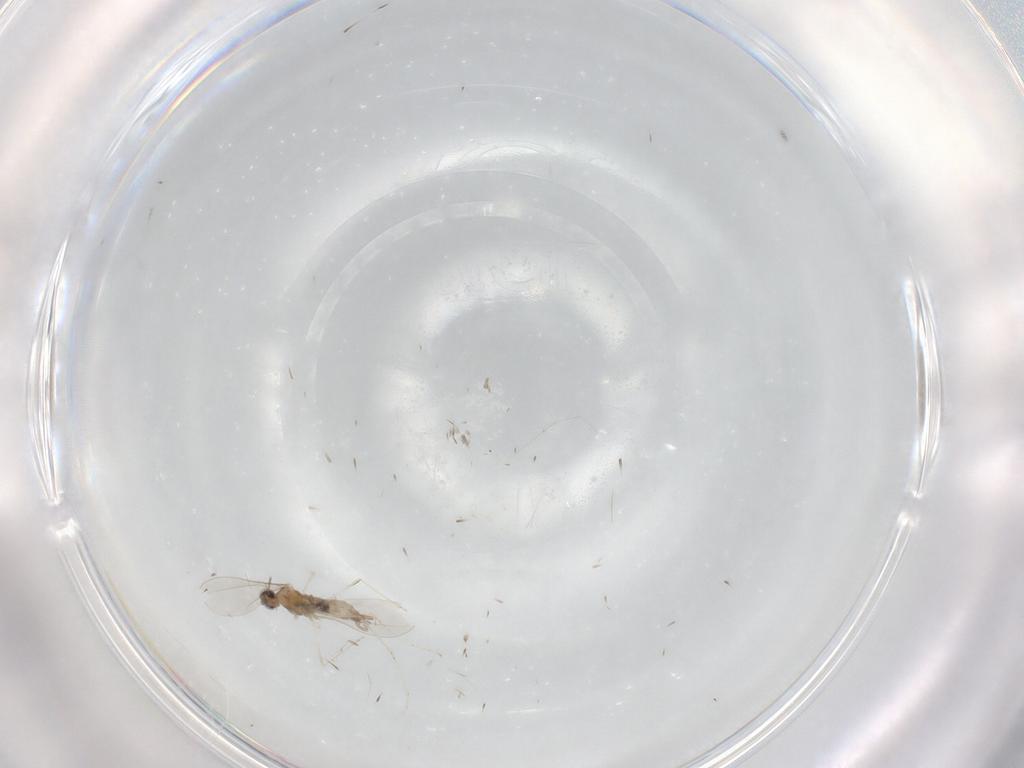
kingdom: Animalia
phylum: Arthropoda
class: Insecta
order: Diptera
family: Cecidomyiidae
